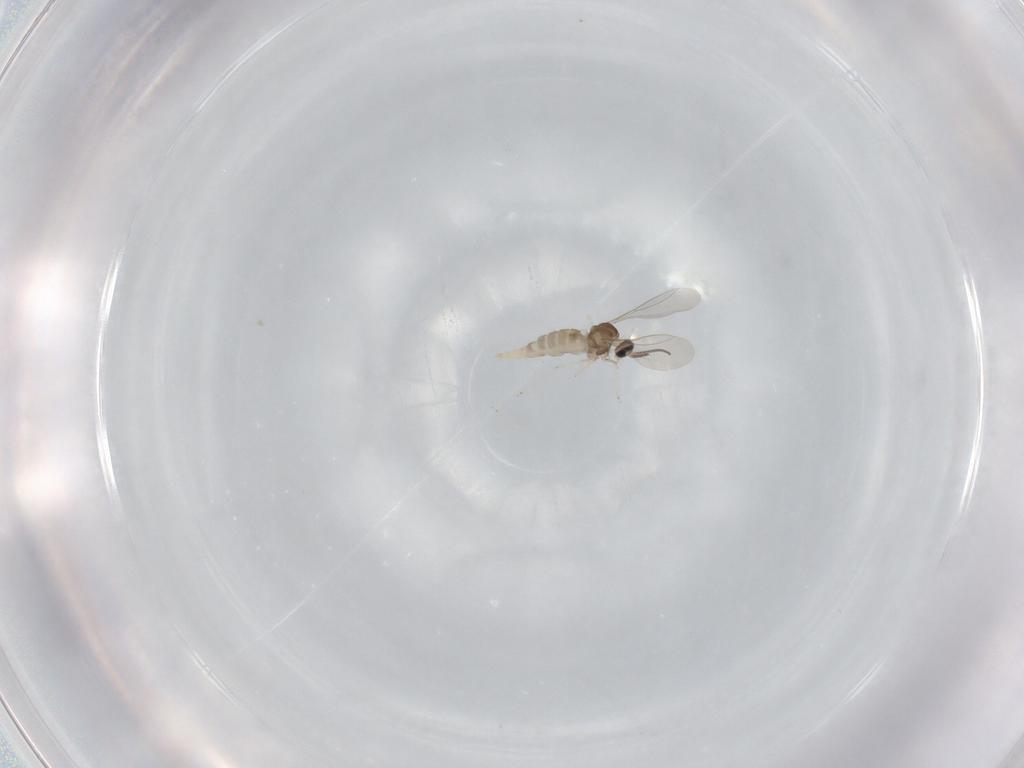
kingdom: Animalia
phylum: Arthropoda
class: Insecta
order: Diptera
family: Cecidomyiidae
